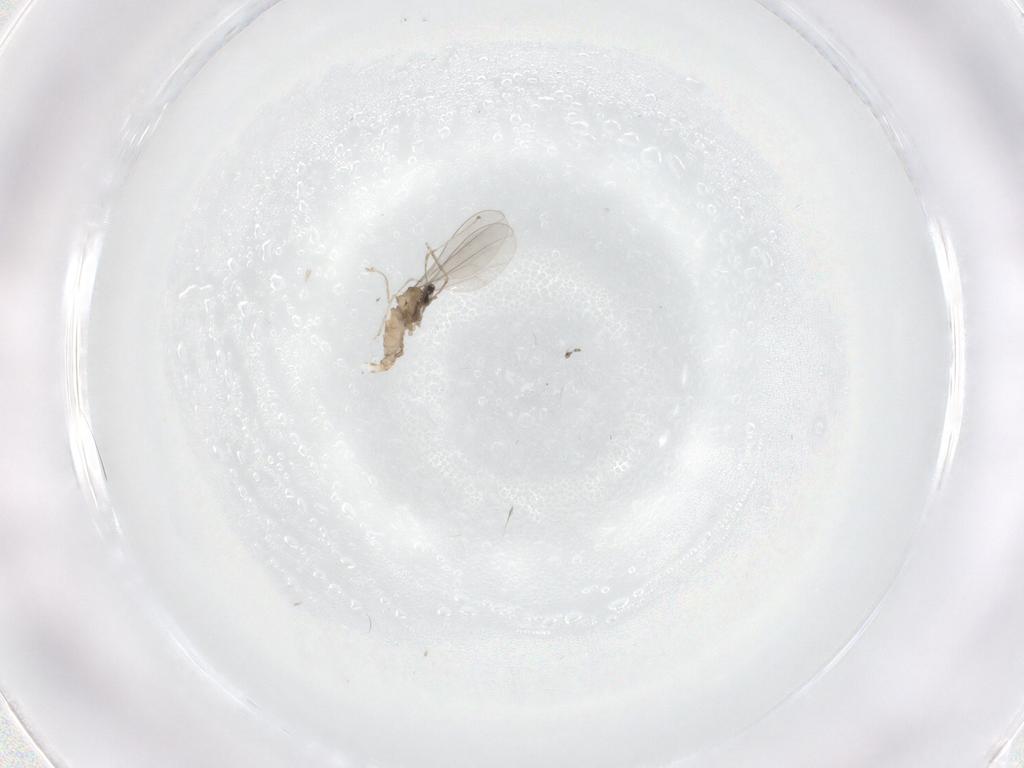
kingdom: Animalia
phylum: Arthropoda
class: Insecta
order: Diptera
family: Cecidomyiidae
